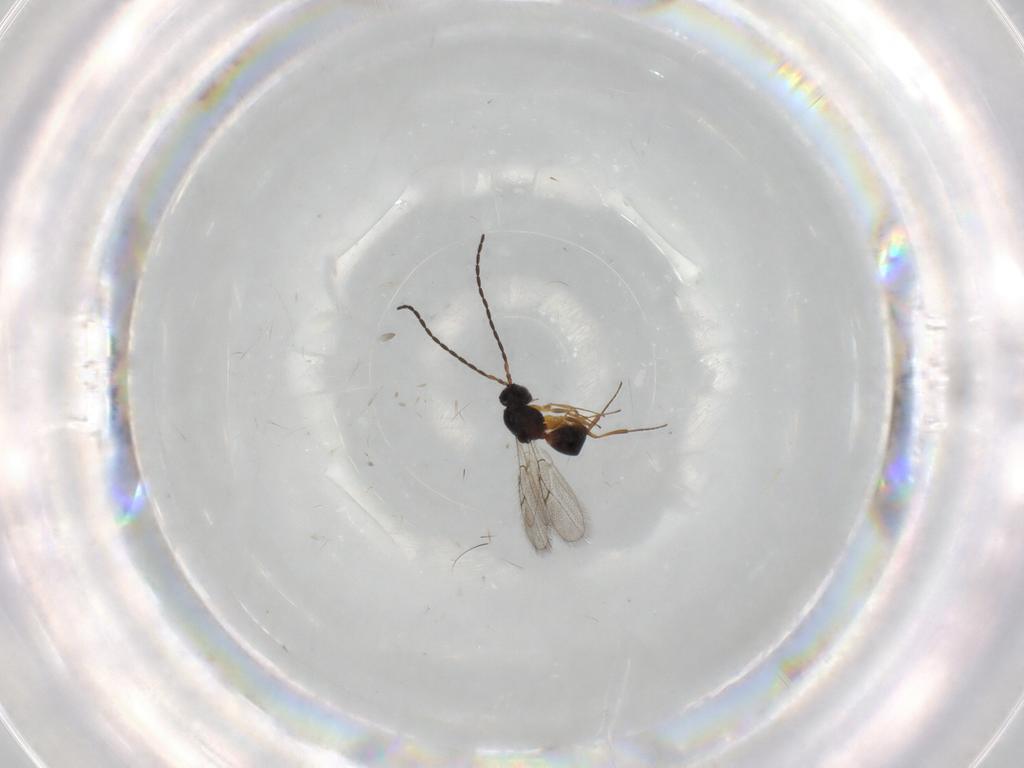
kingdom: Animalia
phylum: Arthropoda
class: Insecta
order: Hymenoptera
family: Figitidae
